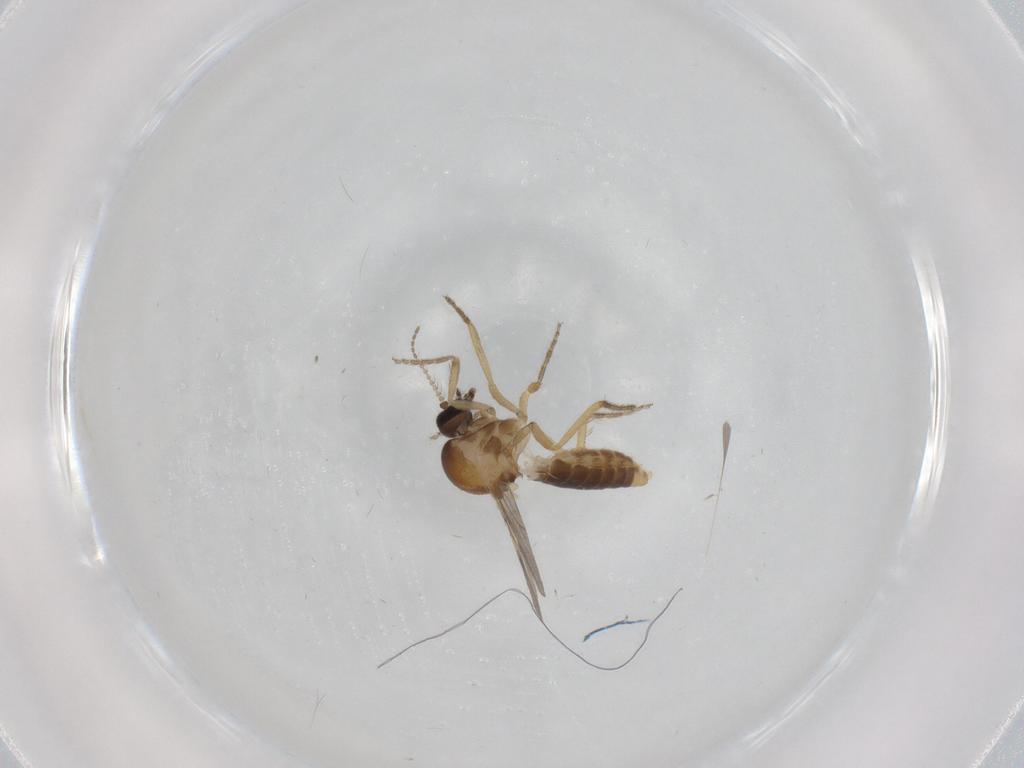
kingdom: Animalia
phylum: Arthropoda
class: Insecta
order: Diptera
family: Ceratopogonidae
